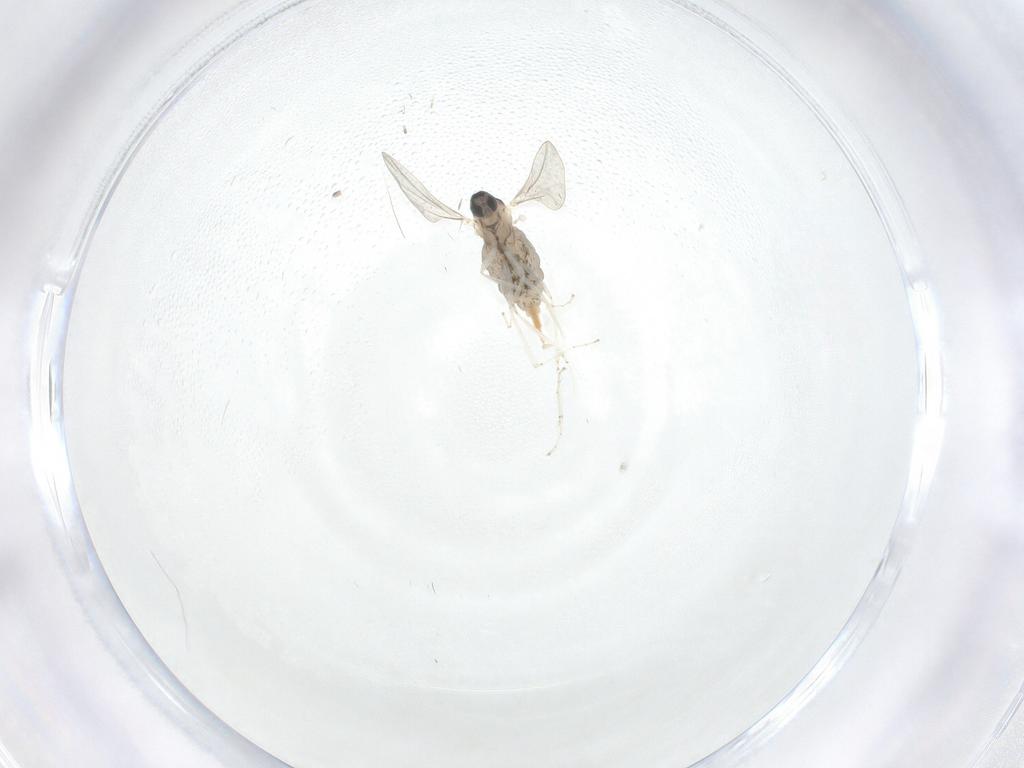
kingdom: Animalia
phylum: Arthropoda
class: Insecta
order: Diptera
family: Cecidomyiidae
